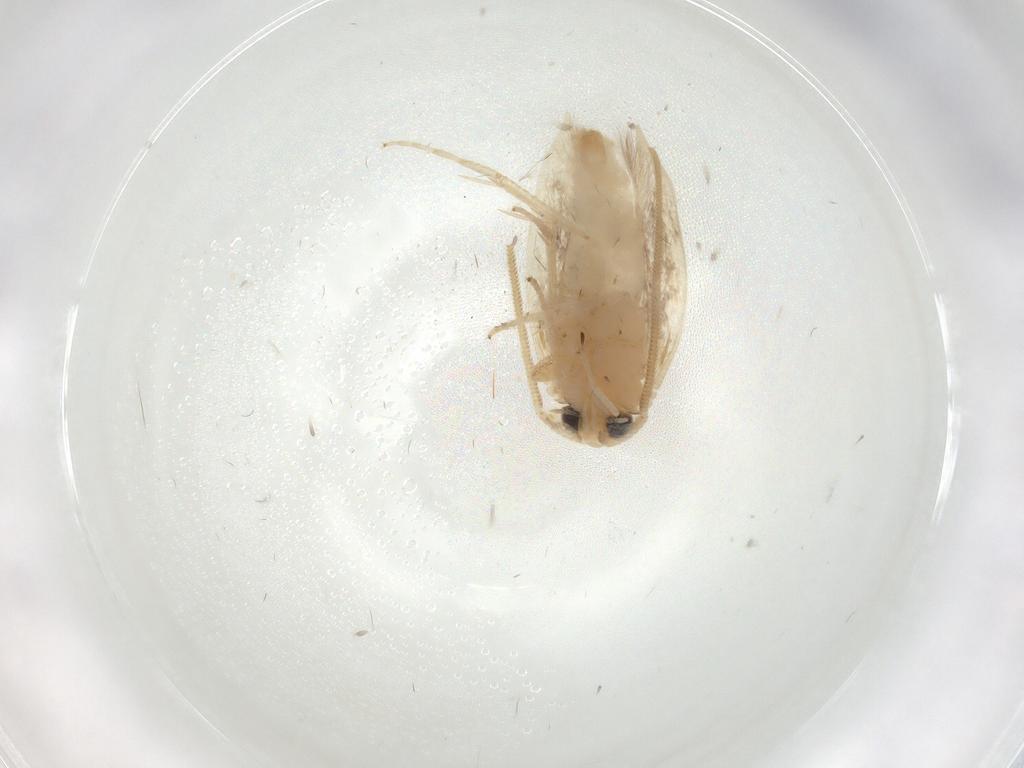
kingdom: Animalia
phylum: Arthropoda
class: Insecta
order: Lepidoptera
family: Opostegidae
